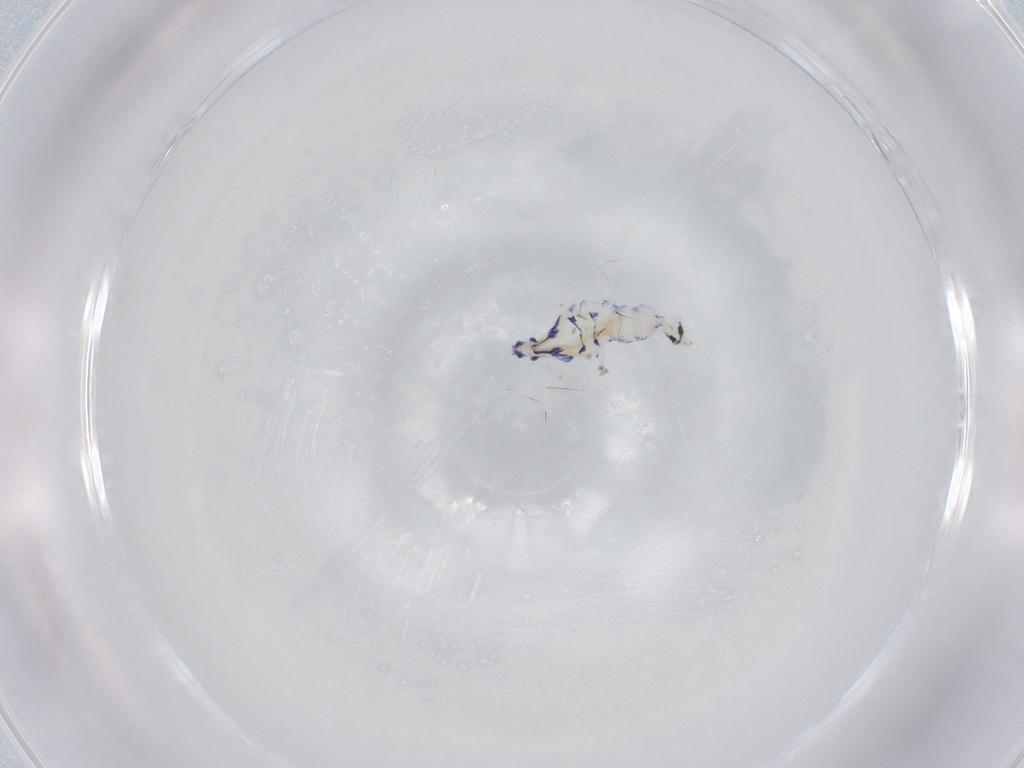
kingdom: Animalia
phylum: Arthropoda
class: Collembola
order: Entomobryomorpha
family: Entomobryidae
